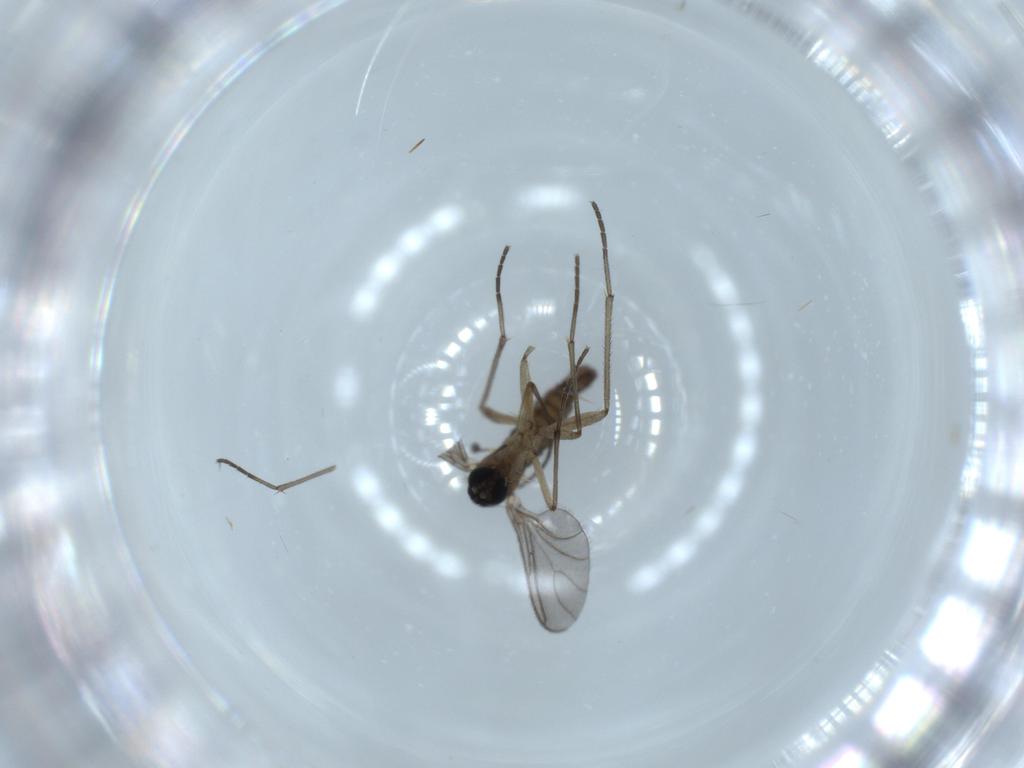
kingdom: Animalia
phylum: Arthropoda
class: Insecta
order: Diptera
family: Sciaridae
